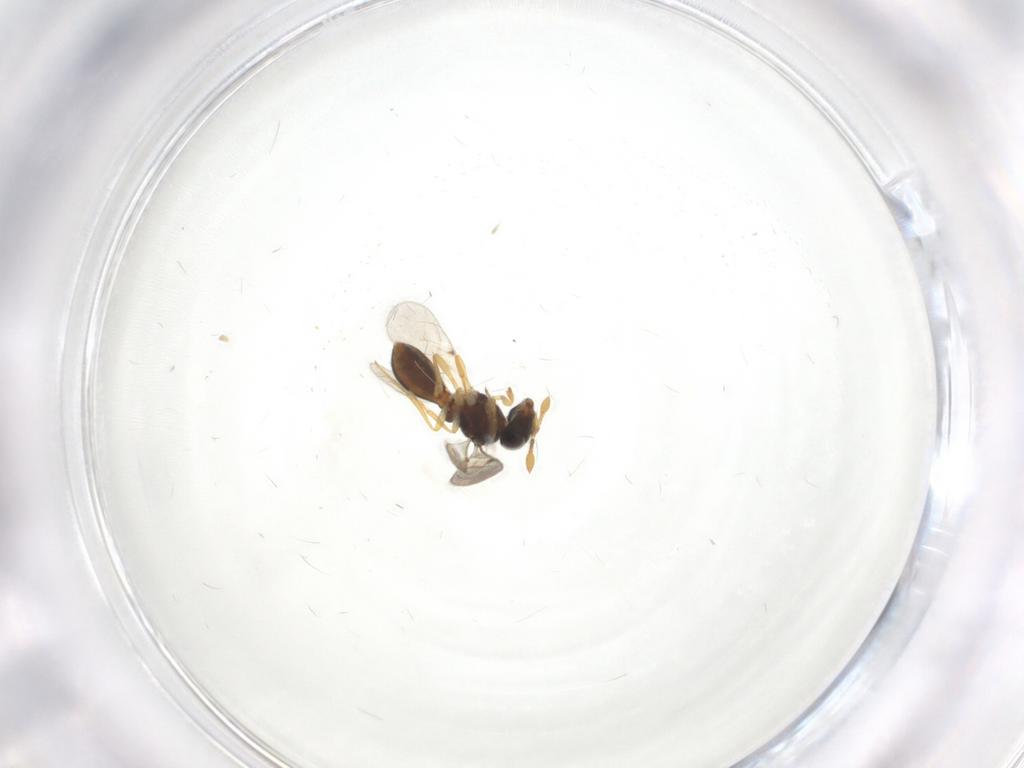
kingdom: Animalia
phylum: Arthropoda
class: Insecta
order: Hymenoptera
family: Scelionidae
